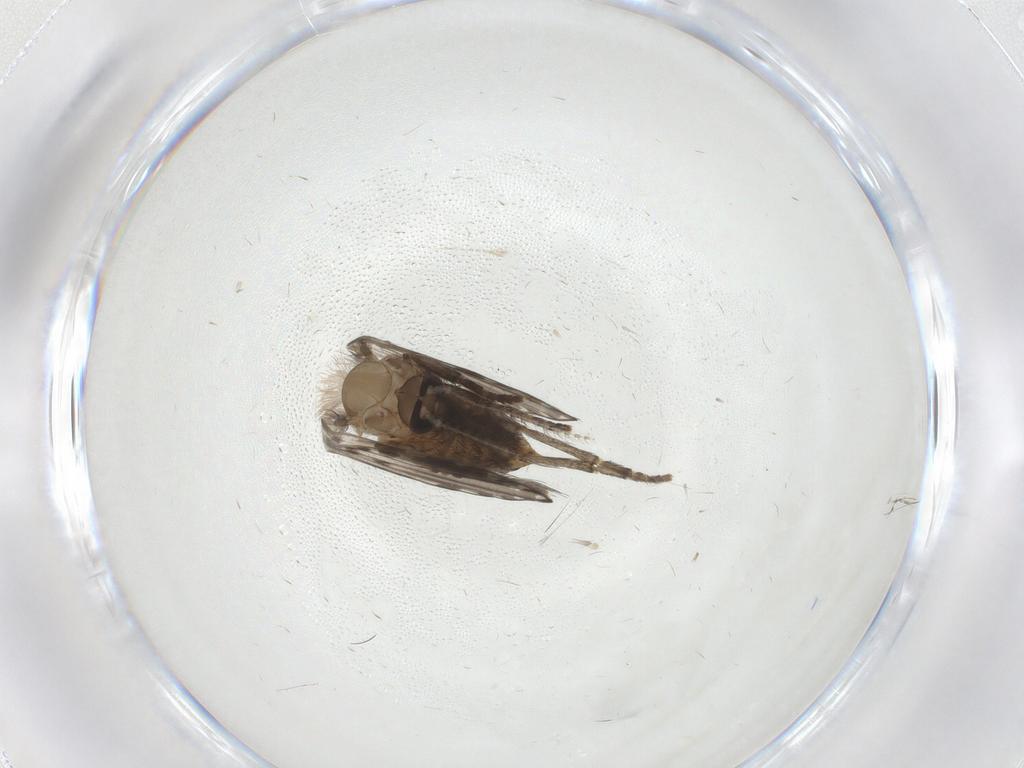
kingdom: Animalia
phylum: Arthropoda
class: Insecta
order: Diptera
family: Psychodidae
